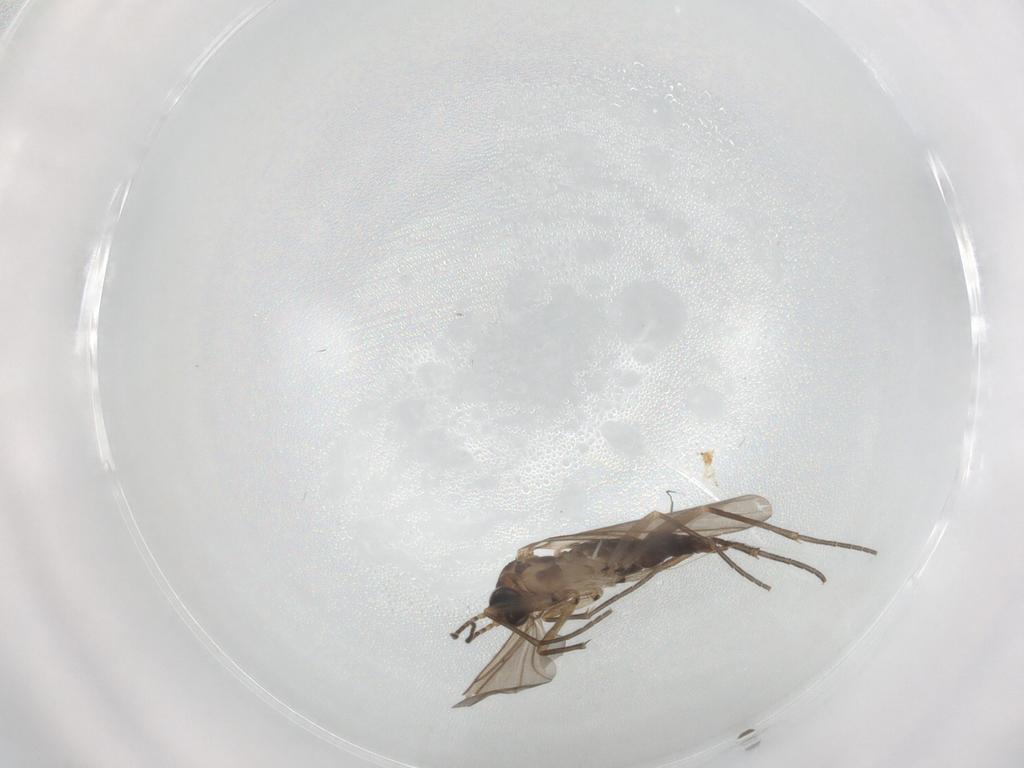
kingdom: Animalia
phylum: Arthropoda
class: Insecta
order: Diptera
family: Sciaridae
